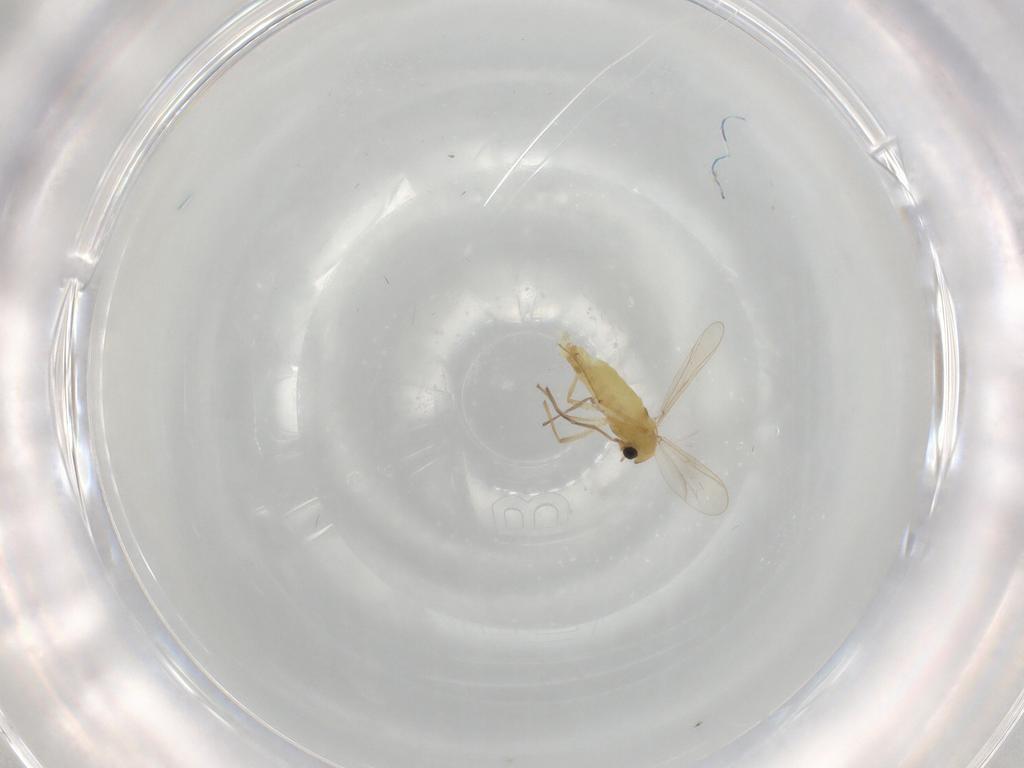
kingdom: Animalia
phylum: Arthropoda
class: Insecta
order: Diptera
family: Chironomidae
